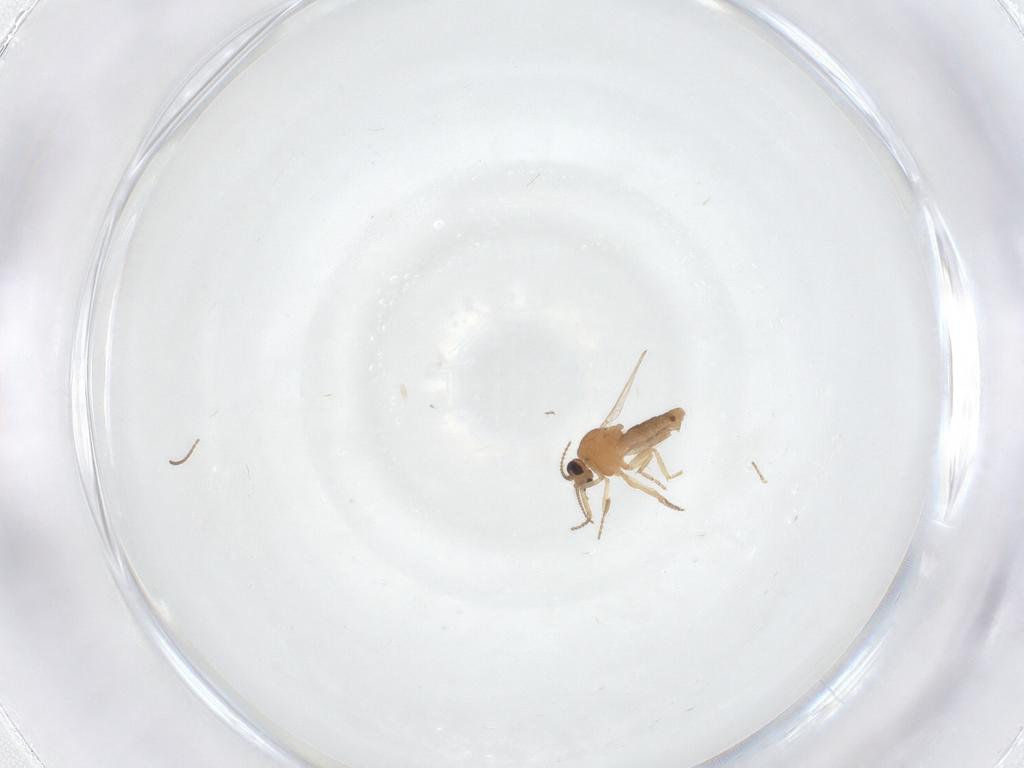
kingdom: Animalia
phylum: Arthropoda
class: Insecta
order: Diptera
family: Ceratopogonidae
